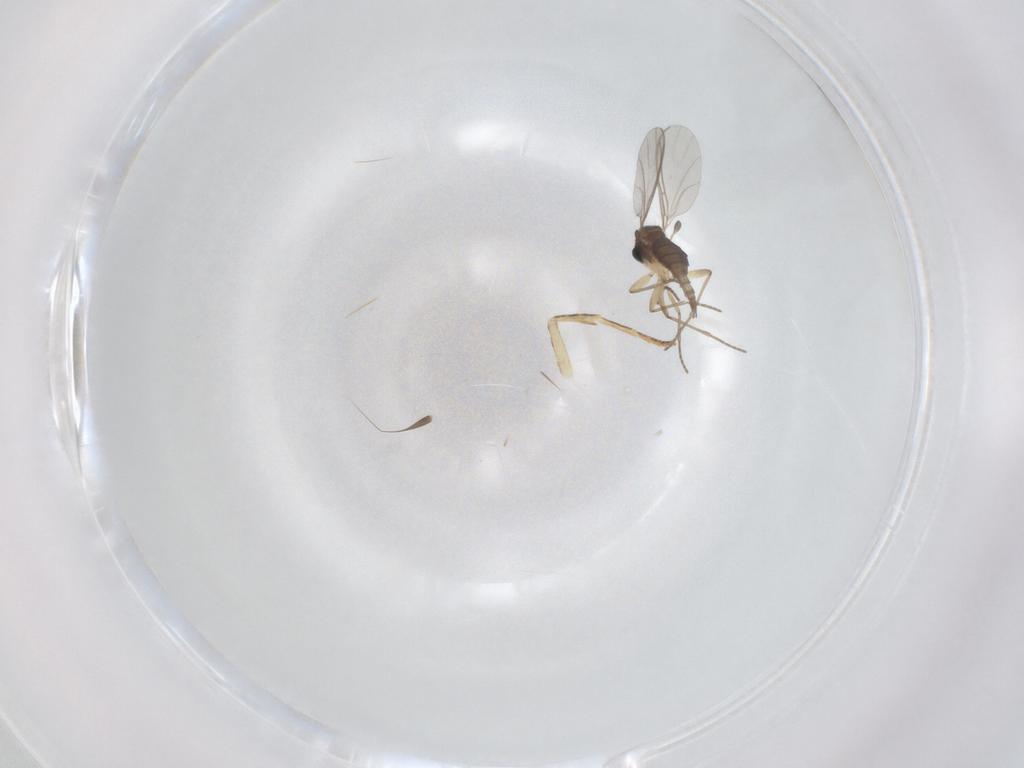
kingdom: Animalia
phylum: Arthropoda
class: Insecta
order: Diptera
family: Sciaridae
